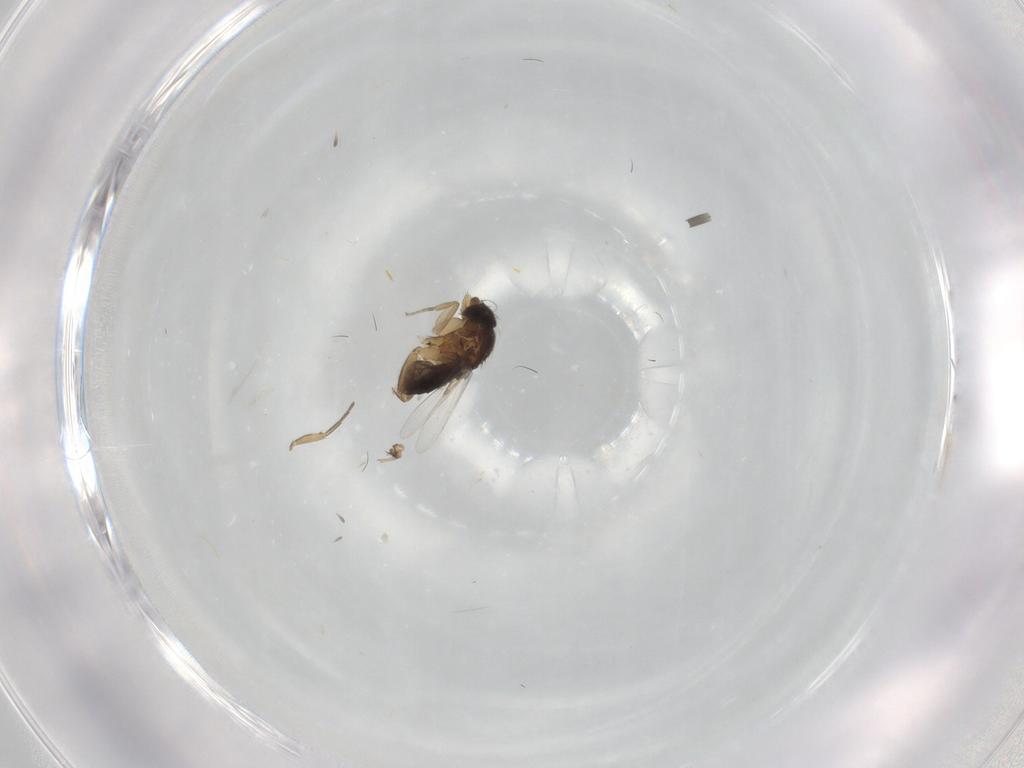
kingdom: Animalia
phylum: Arthropoda
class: Insecta
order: Diptera
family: Phoridae
